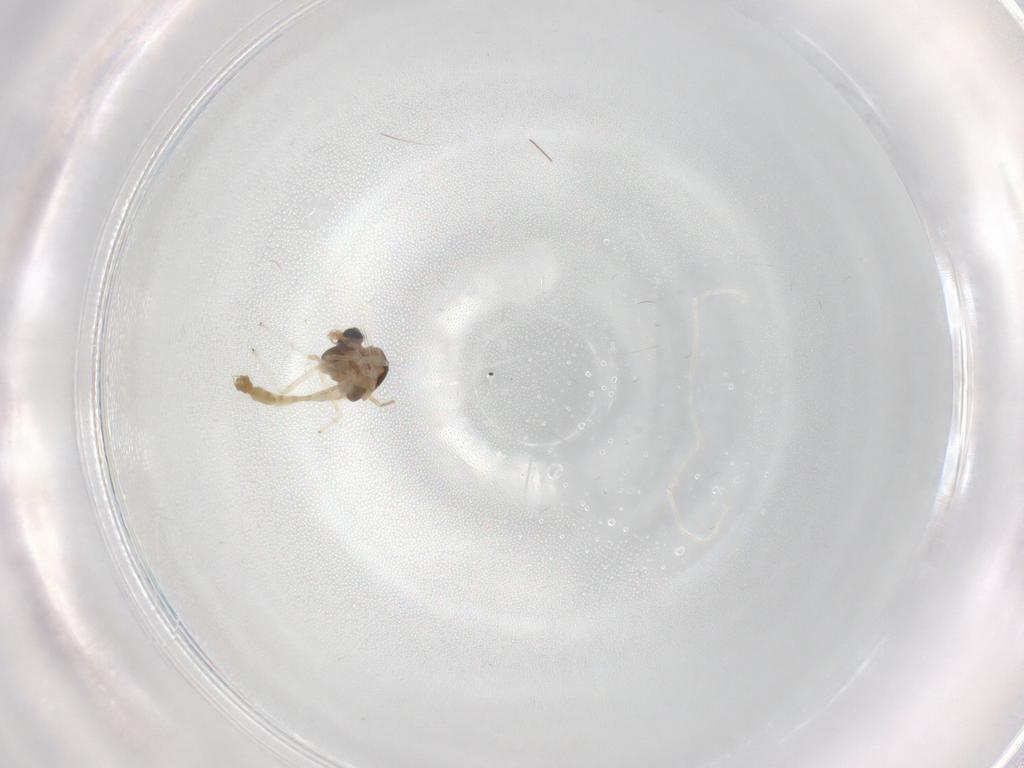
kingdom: Animalia
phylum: Arthropoda
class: Insecta
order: Diptera
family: Chironomidae
